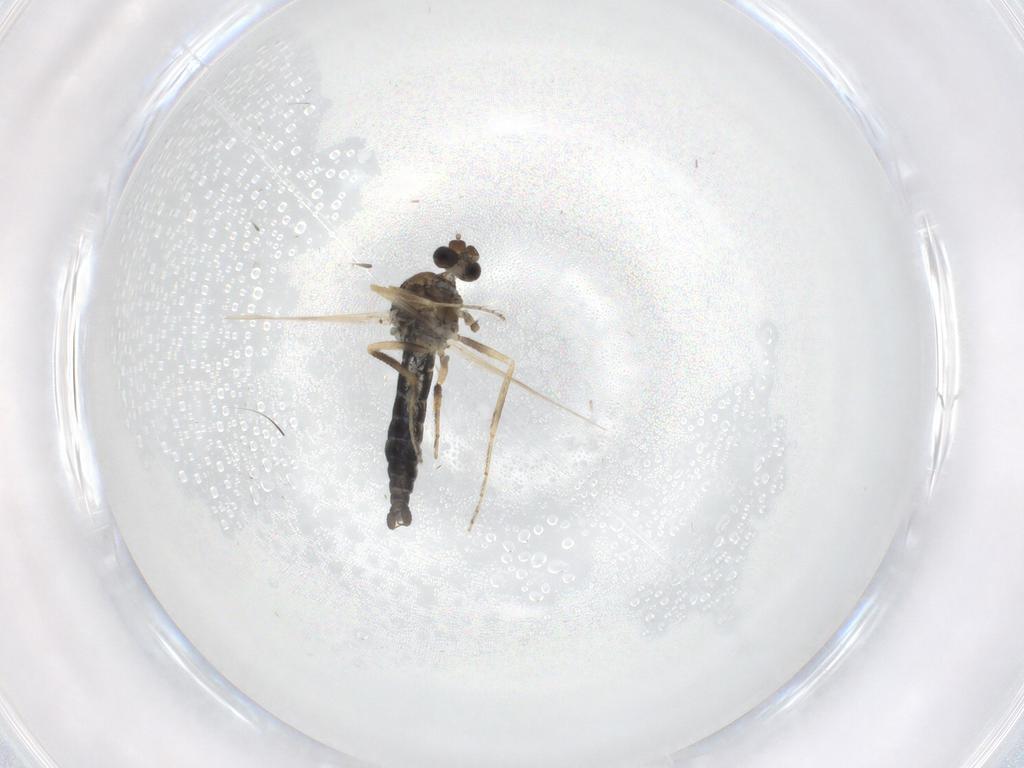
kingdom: Animalia
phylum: Arthropoda
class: Insecta
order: Diptera
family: Ceratopogonidae
